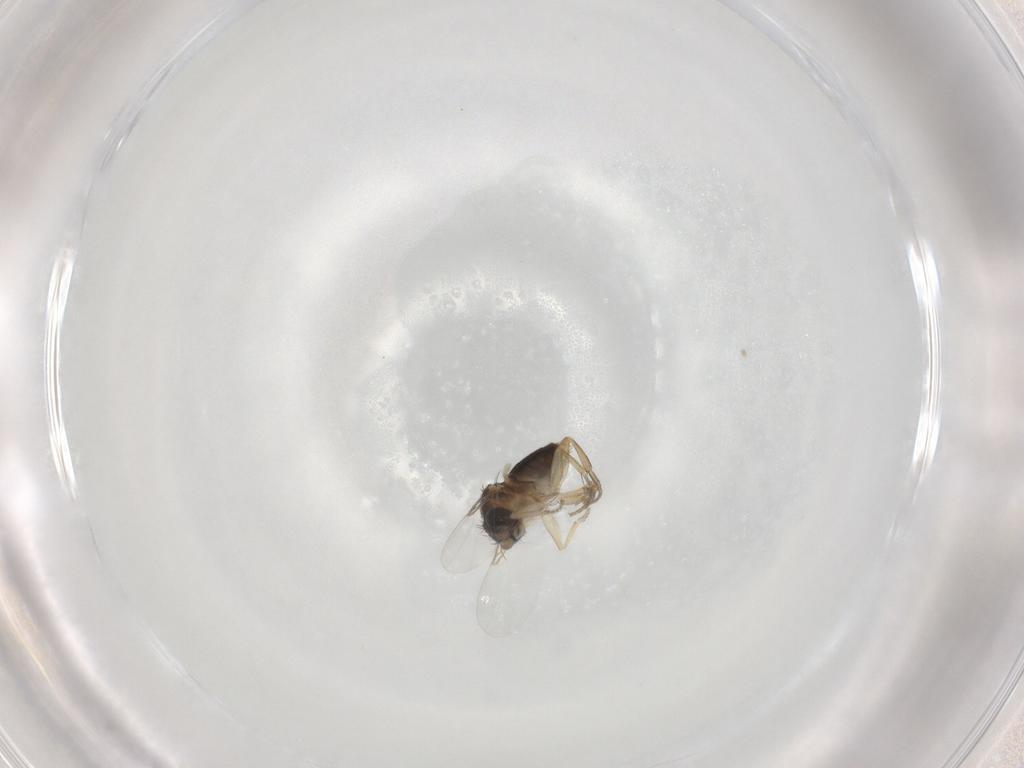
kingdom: Animalia
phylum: Arthropoda
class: Insecta
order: Diptera
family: Phoridae
